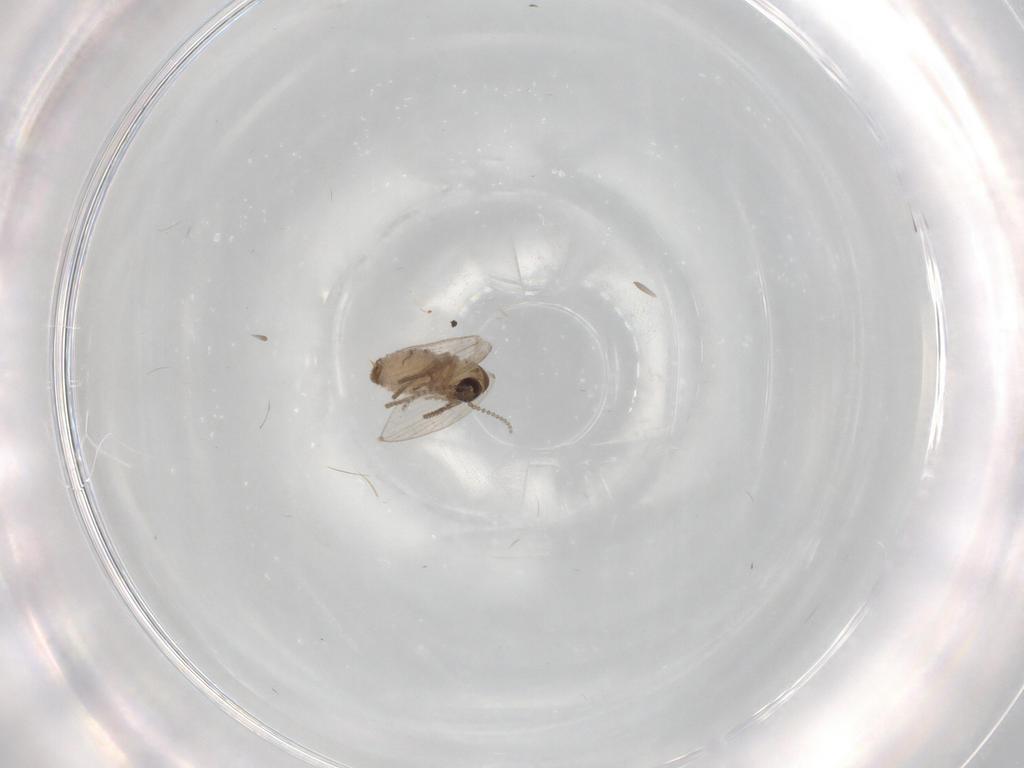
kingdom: Animalia
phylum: Arthropoda
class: Insecta
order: Diptera
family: Psychodidae
